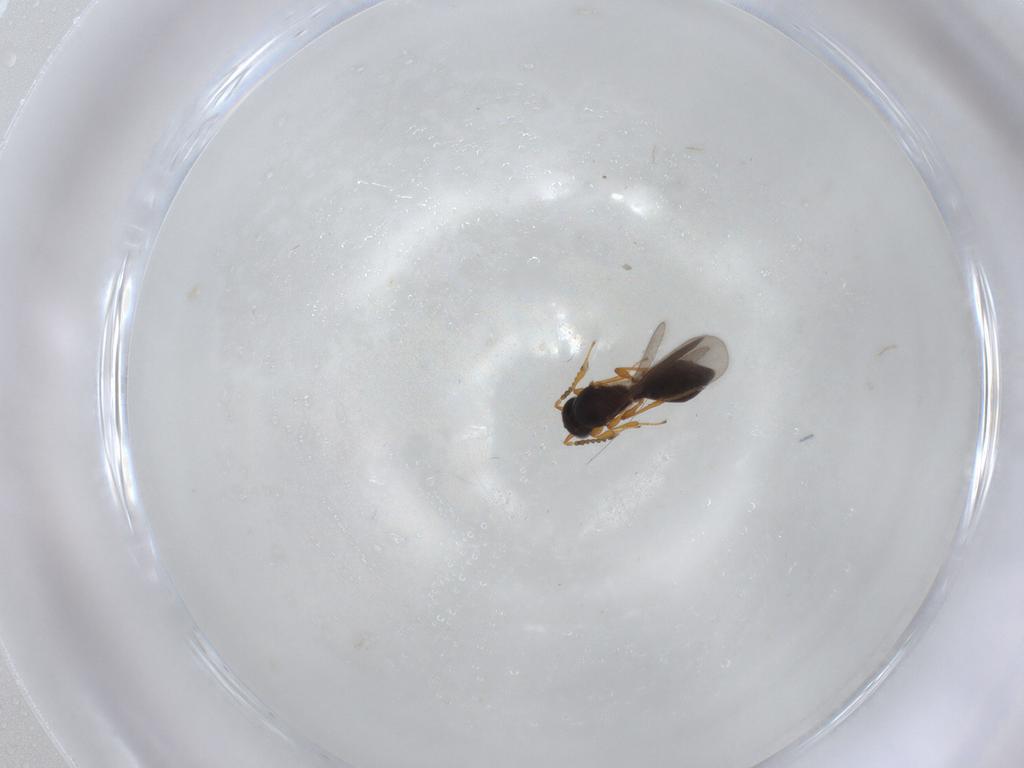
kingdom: Animalia
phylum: Arthropoda
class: Insecta
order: Hymenoptera
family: Platygastridae
